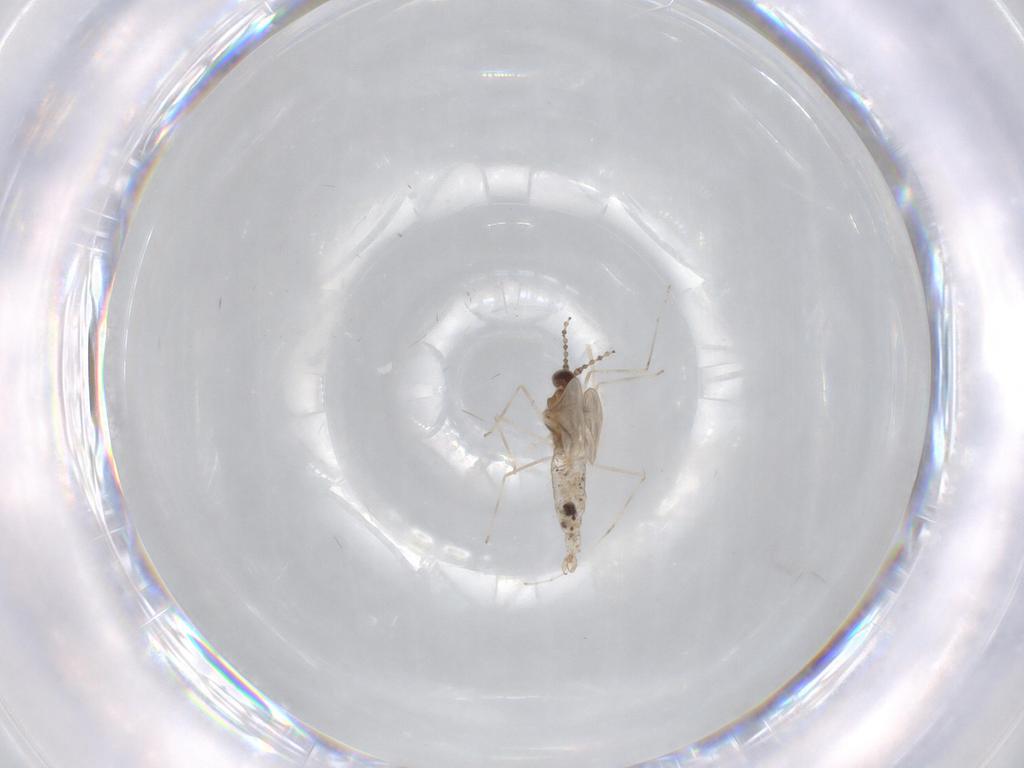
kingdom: Animalia
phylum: Arthropoda
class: Insecta
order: Diptera
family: Cecidomyiidae
